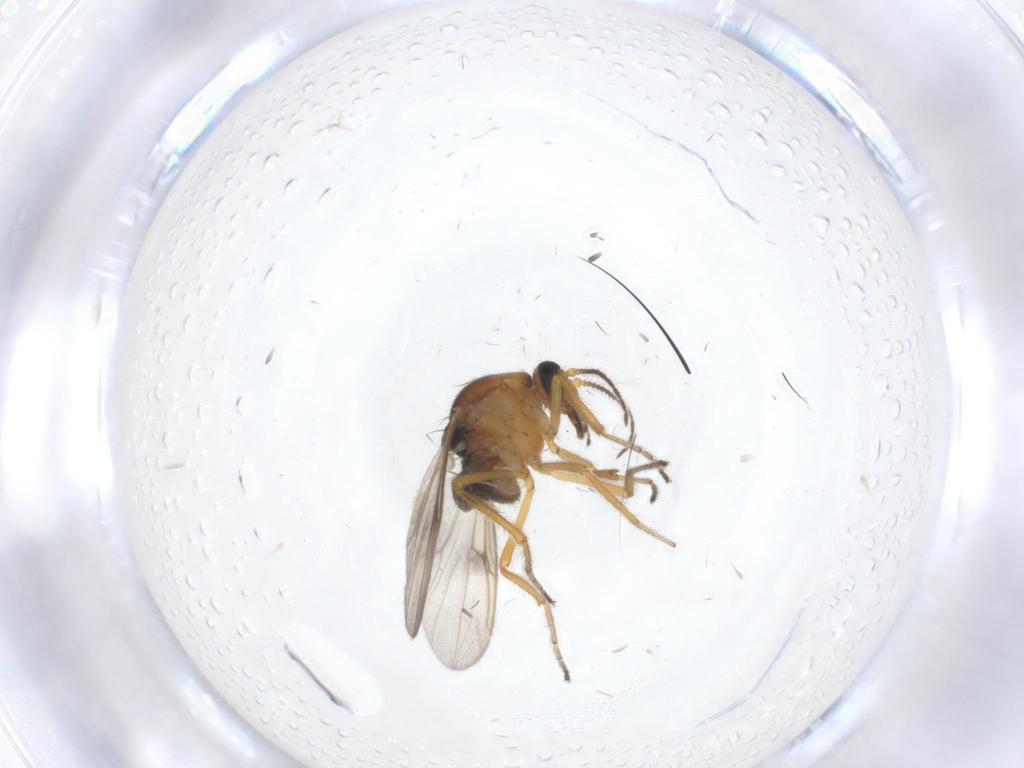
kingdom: Animalia
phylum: Arthropoda
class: Insecta
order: Diptera
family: Ceratopogonidae
